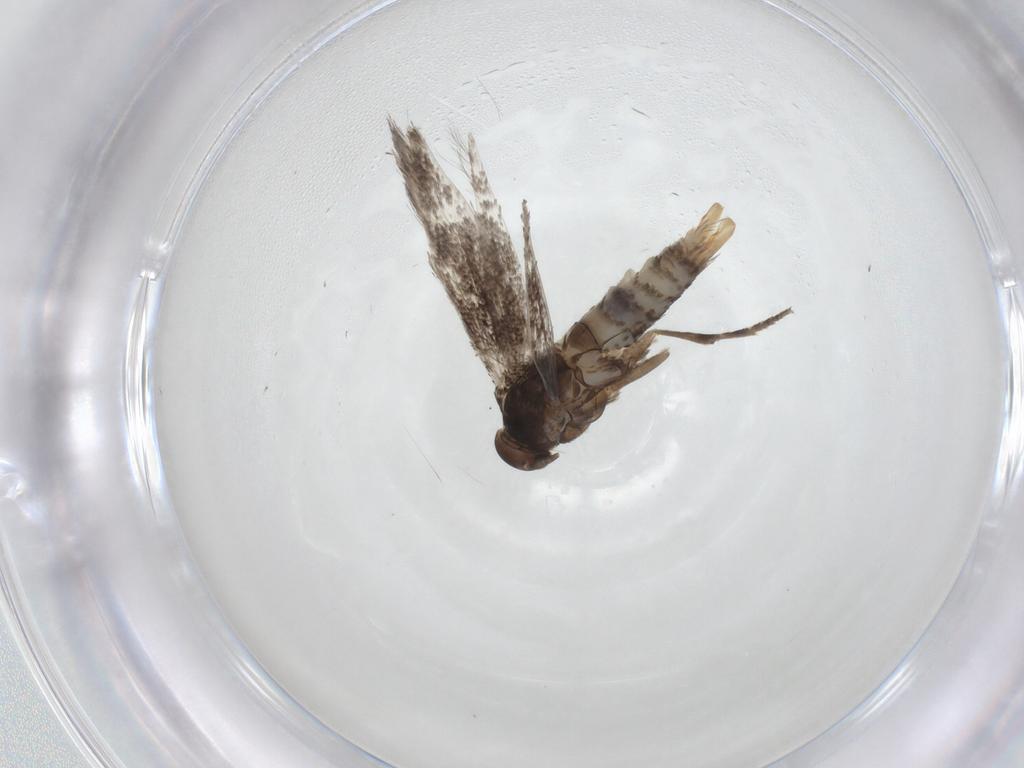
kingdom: Animalia
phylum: Arthropoda
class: Insecta
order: Lepidoptera
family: Elachistidae
